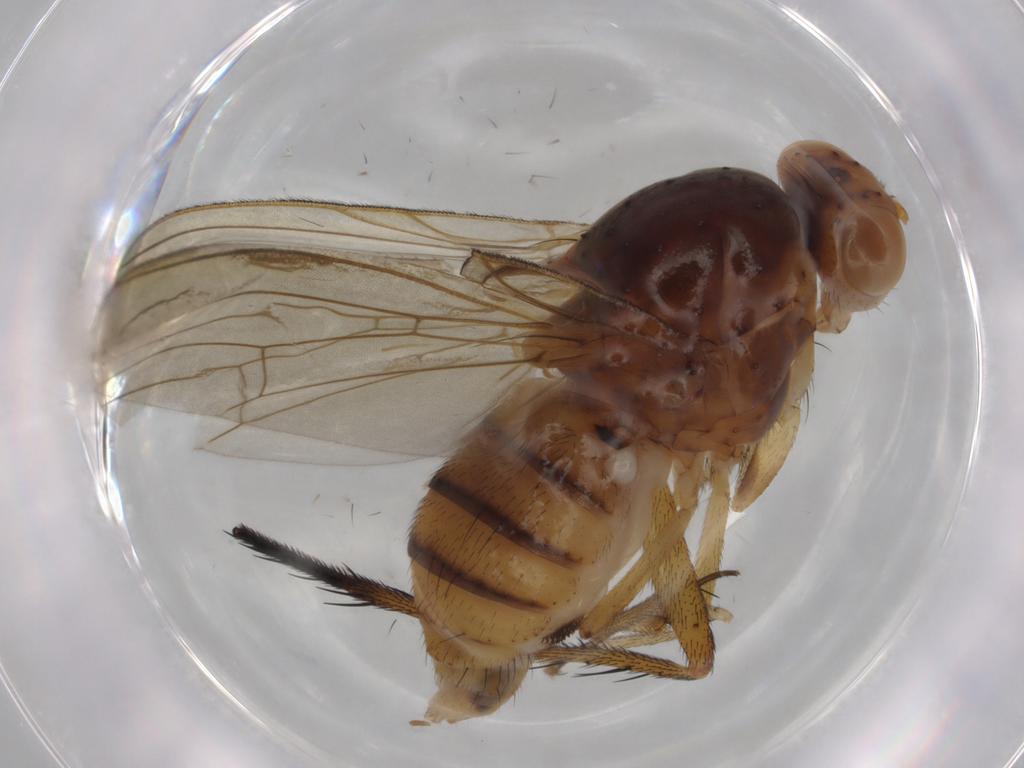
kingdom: Animalia
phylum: Arthropoda
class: Insecta
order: Diptera
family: Dolichopodidae
